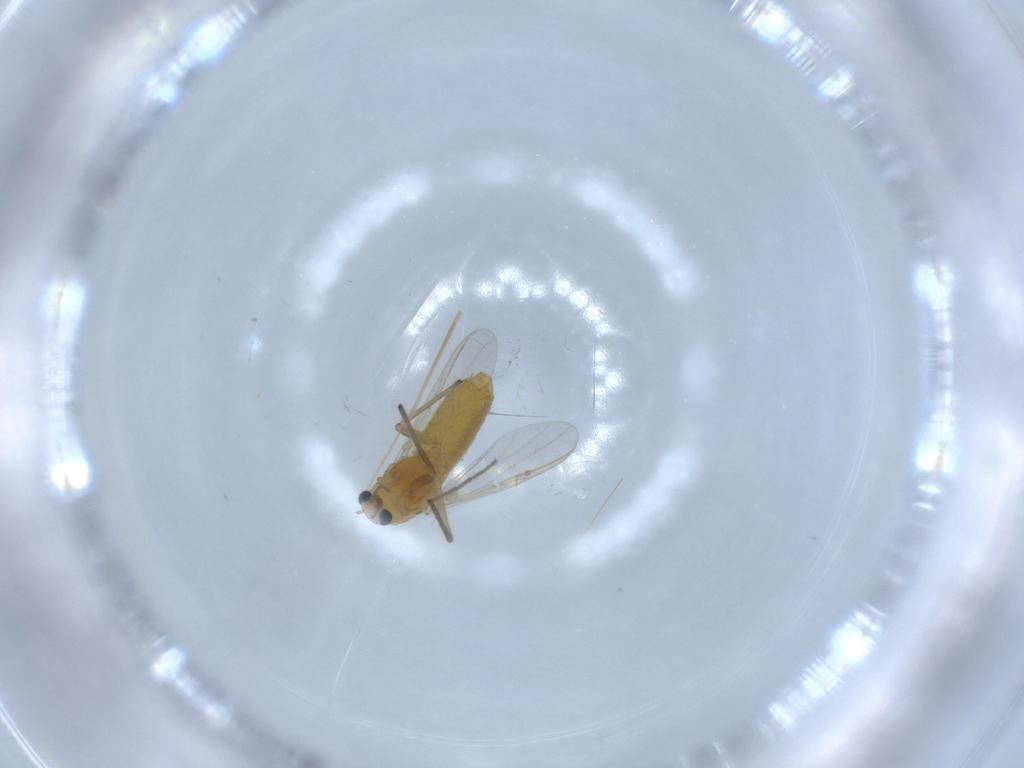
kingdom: Animalia
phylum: Arthropoda
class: Insecta
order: Diptera
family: Chironomidae
